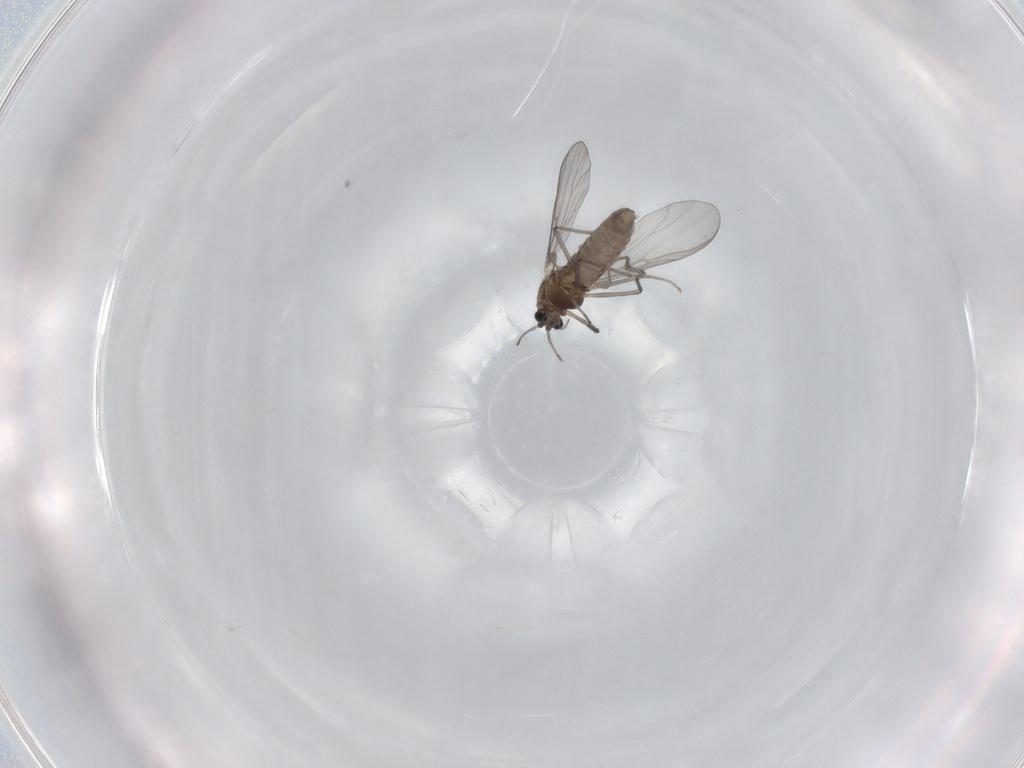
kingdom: Animalia
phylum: Arthropoda
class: Insecta
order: Diptera
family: Chironomidae
